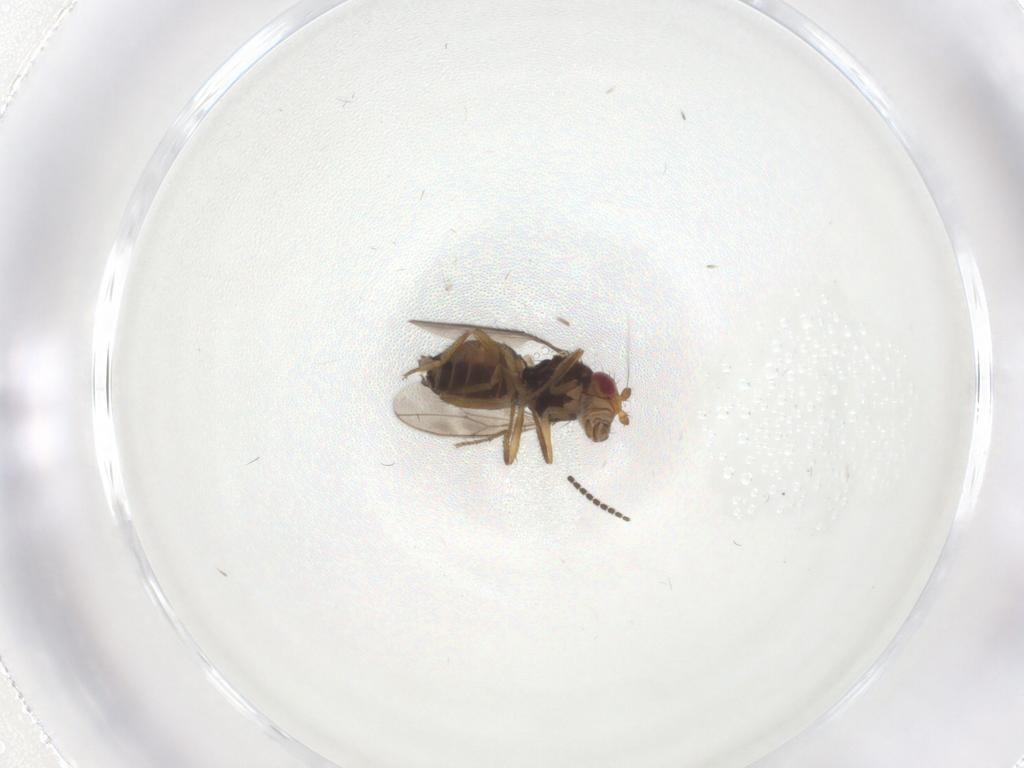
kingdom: Animalia
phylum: Arthropoda
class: Insecta
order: Diptera
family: Sphaeroceridae
